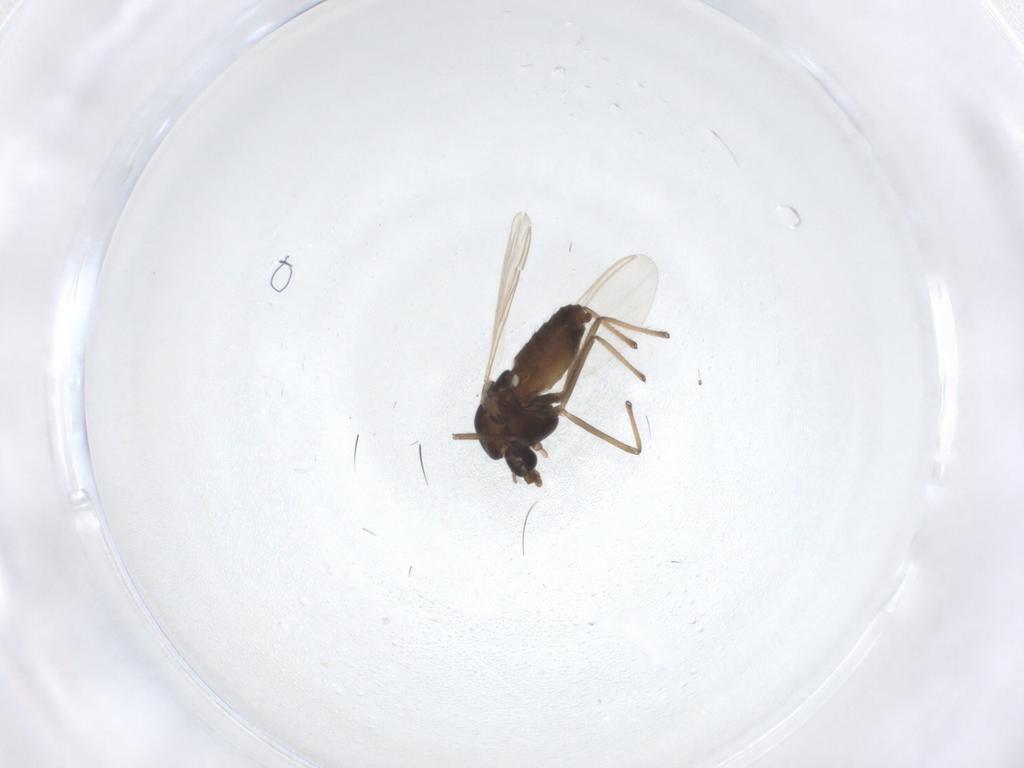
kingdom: Animalia
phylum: Arthropoda
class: Insecta
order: Diptera
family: Chironomidae
